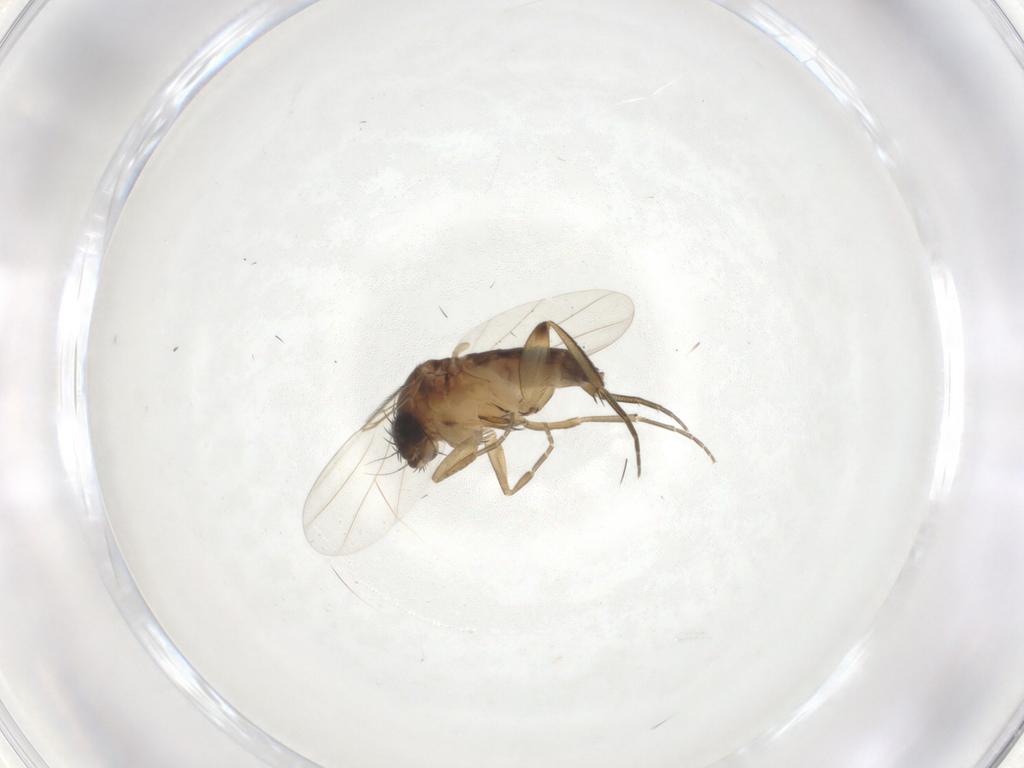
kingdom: Animalia
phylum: Arthropoda
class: Insecta
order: Diptera
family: Phoridae
